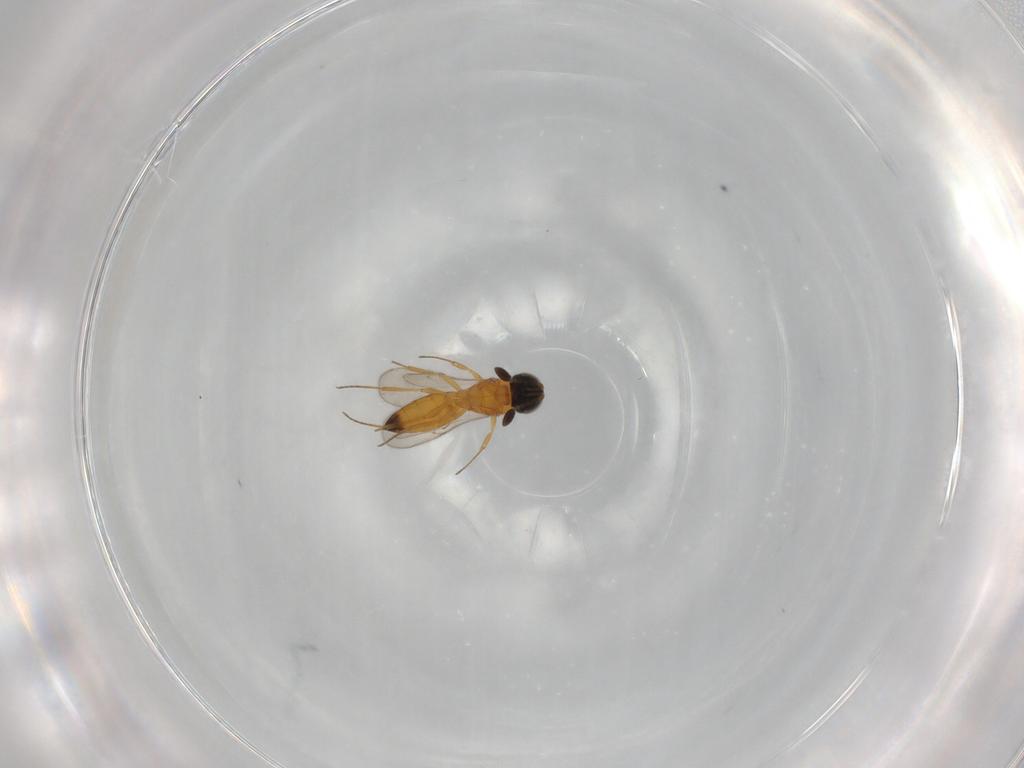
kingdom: Animalia
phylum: Arthropoda
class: Insecta
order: Hymenoptera
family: Scelionidae
